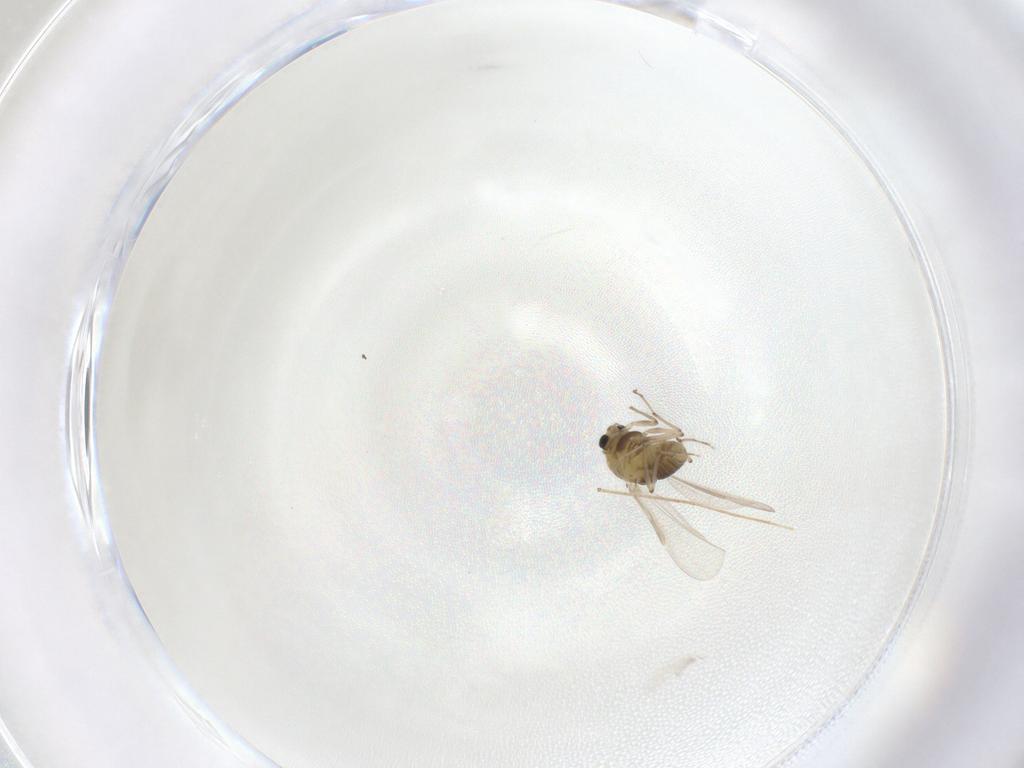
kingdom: Animalia
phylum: Arthropoda
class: Insecta
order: Diptera
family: Chironomidae
